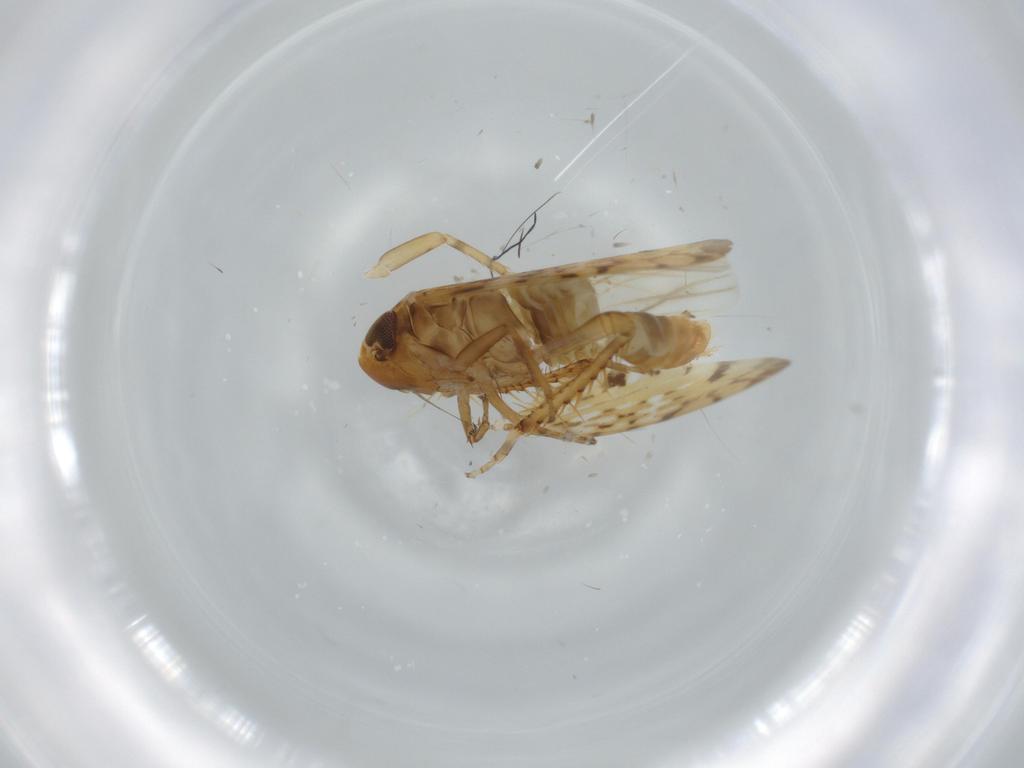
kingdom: Animalia
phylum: Arthropoda
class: Insecta
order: Hemiptera
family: Cicadellidae
